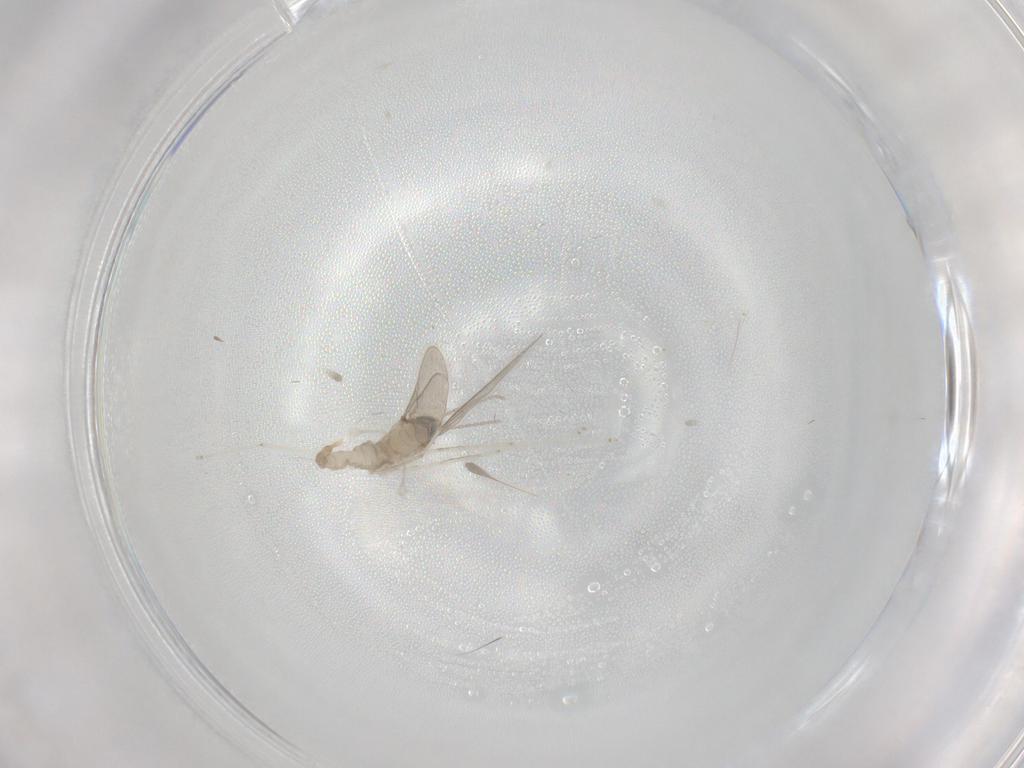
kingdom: Animalia
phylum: Arthropoda
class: Insecta
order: Diptera
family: Cecidomyiidae
